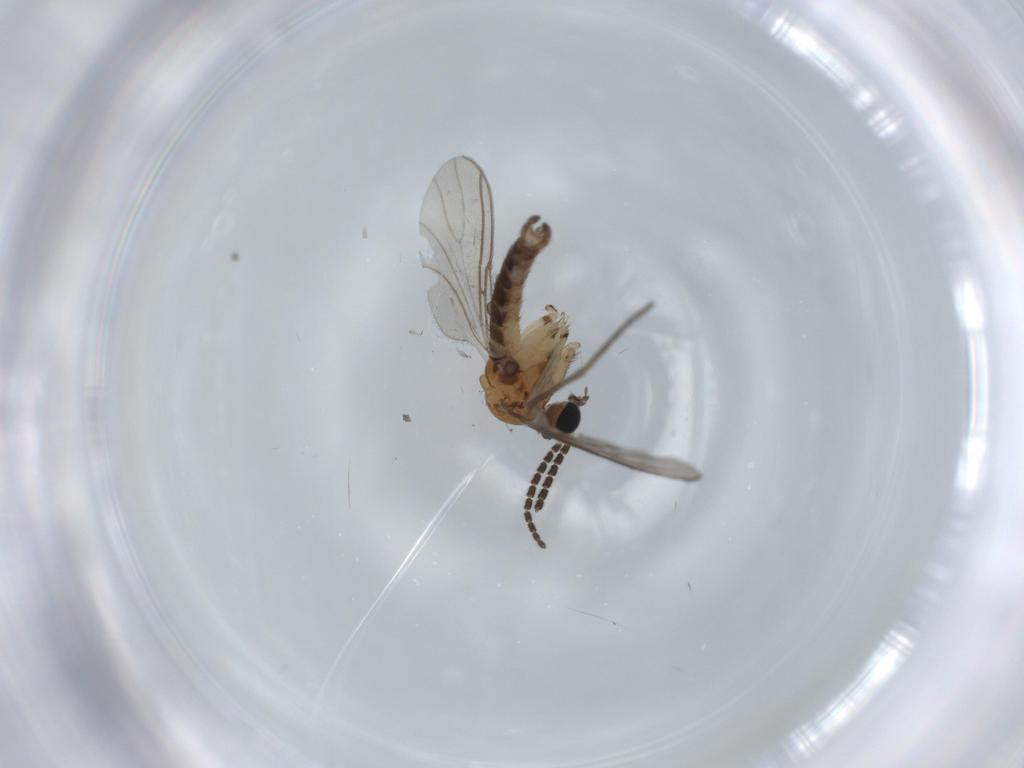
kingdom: Animalia
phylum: Arthropoda
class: Insecta
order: Diptera
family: Sciaridae
